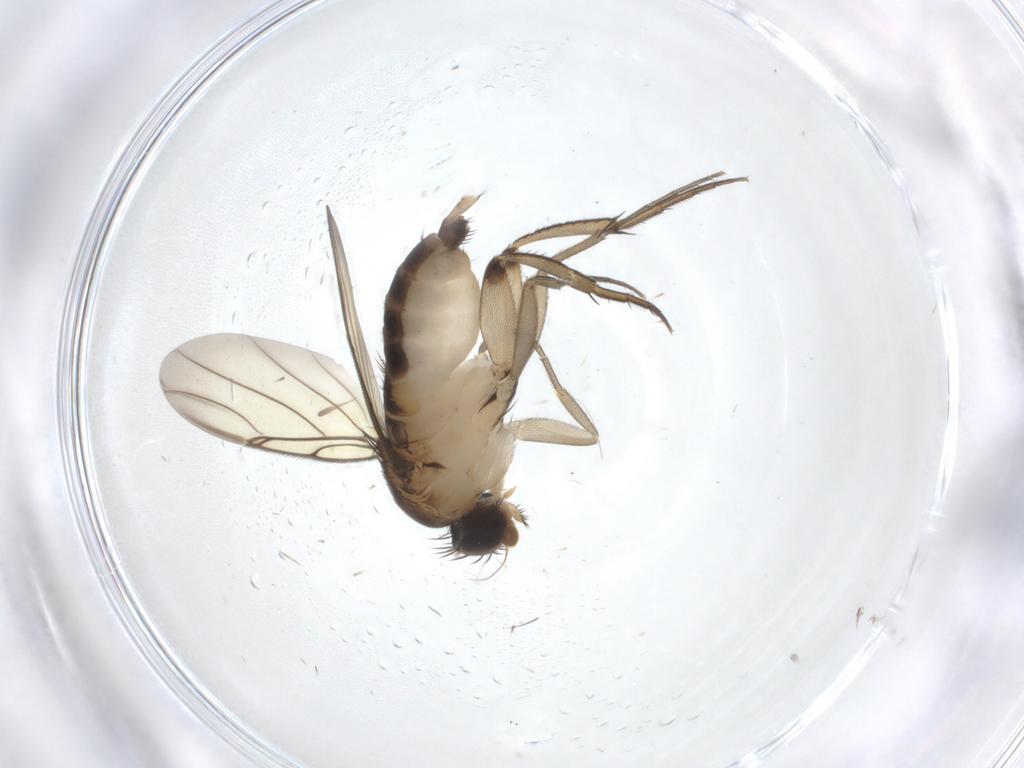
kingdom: Animalia
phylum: Arthropoda
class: Insecta
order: Diptera
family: Phoridae
